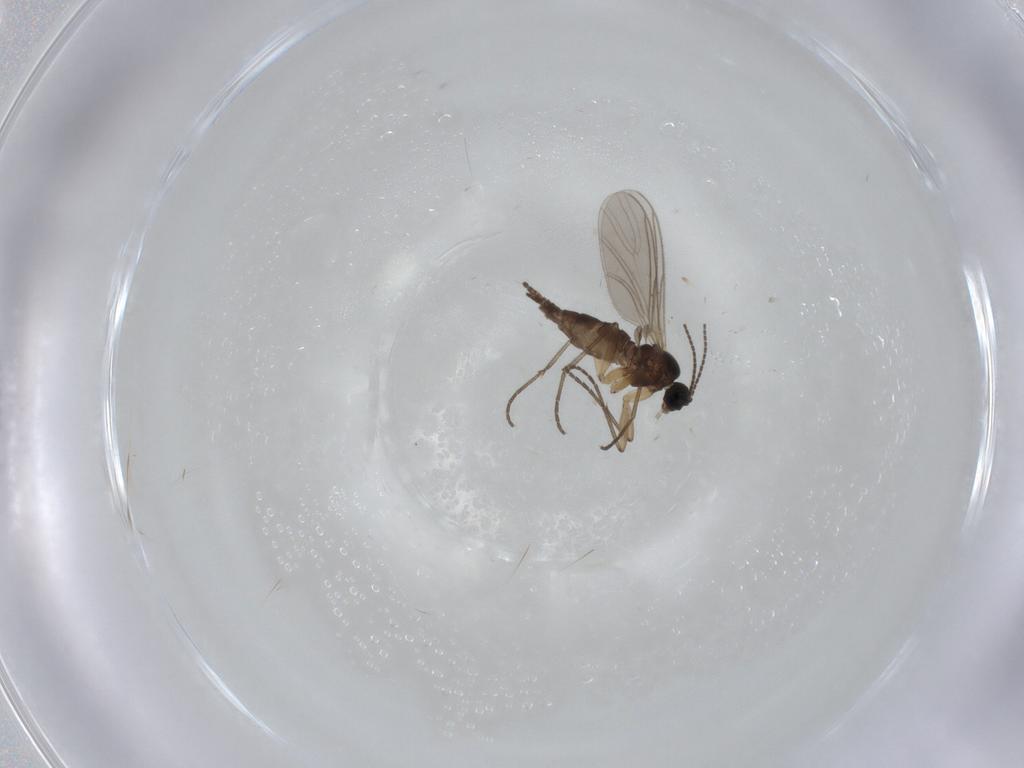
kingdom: Animalia
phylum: Arthropoda
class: Insecta
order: Diptera
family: Sciaridae
